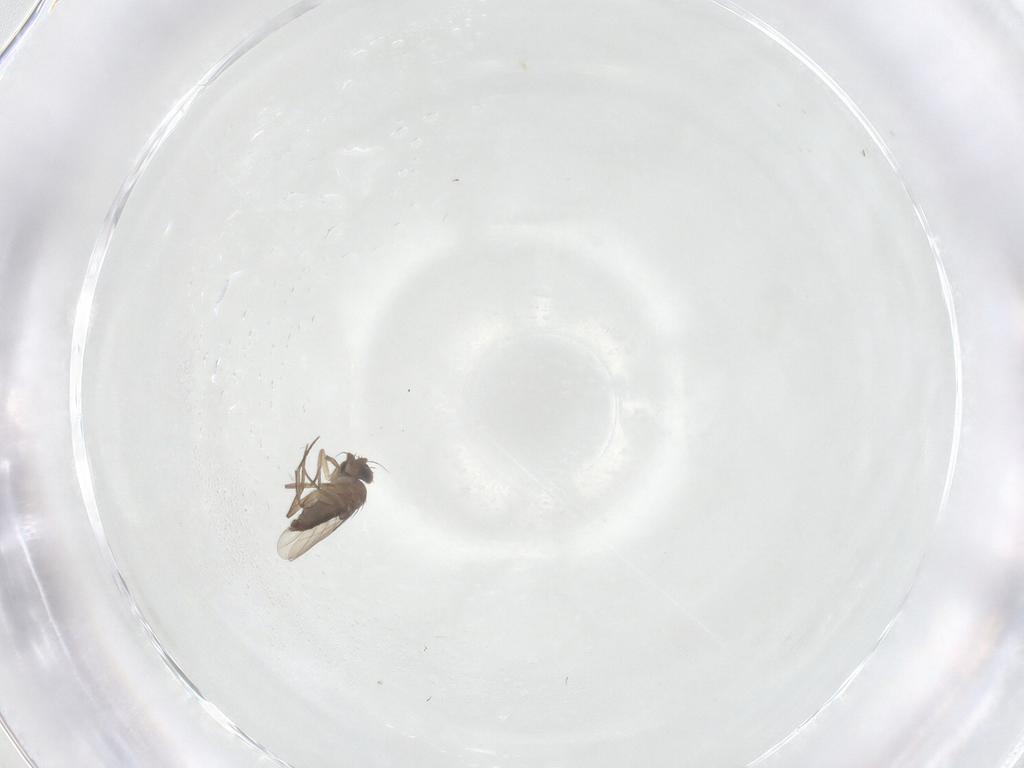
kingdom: Animalia
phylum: Arthropoda
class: Insecta
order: Diptera
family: Phoridae
